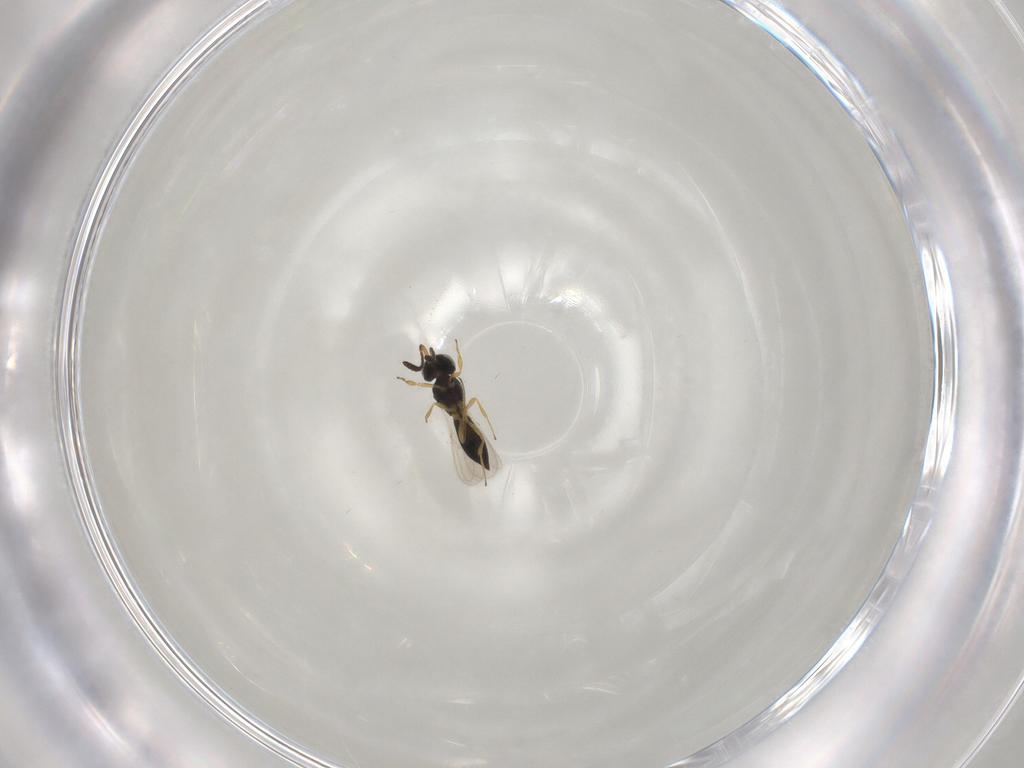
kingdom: Animalia
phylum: Arthropoda
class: Insecta
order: Hymenoptera
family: Scelionidae
